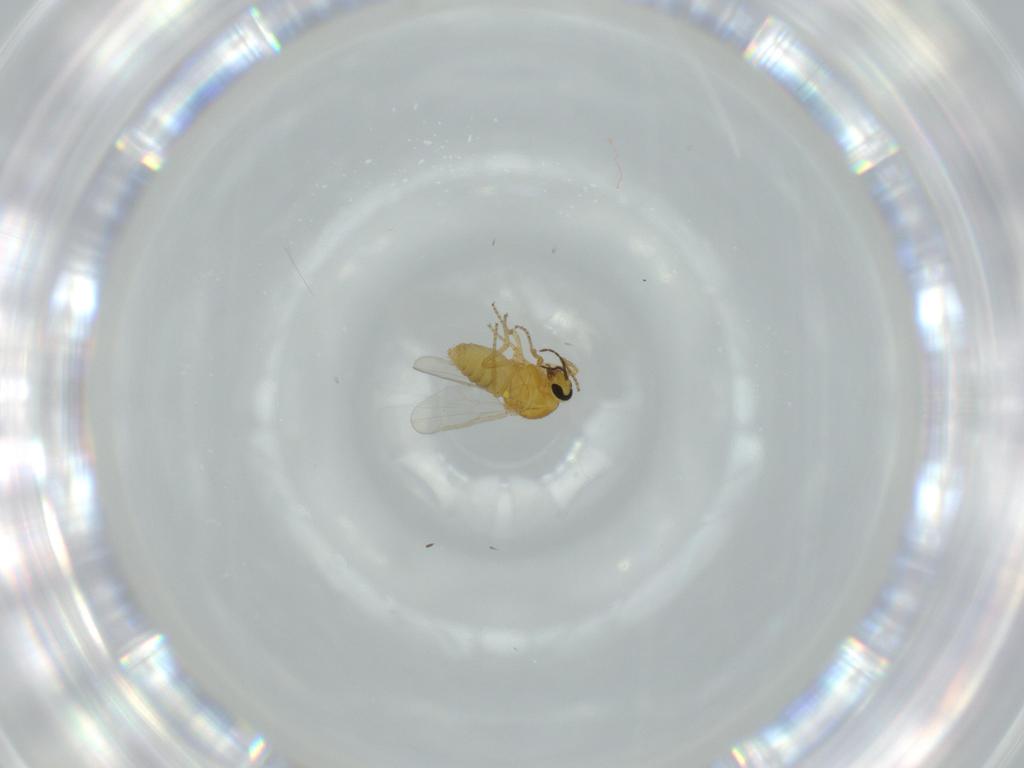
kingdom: Animalia
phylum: Arthropoda
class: Insecta
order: Diptera
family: Ceratopogonidae
